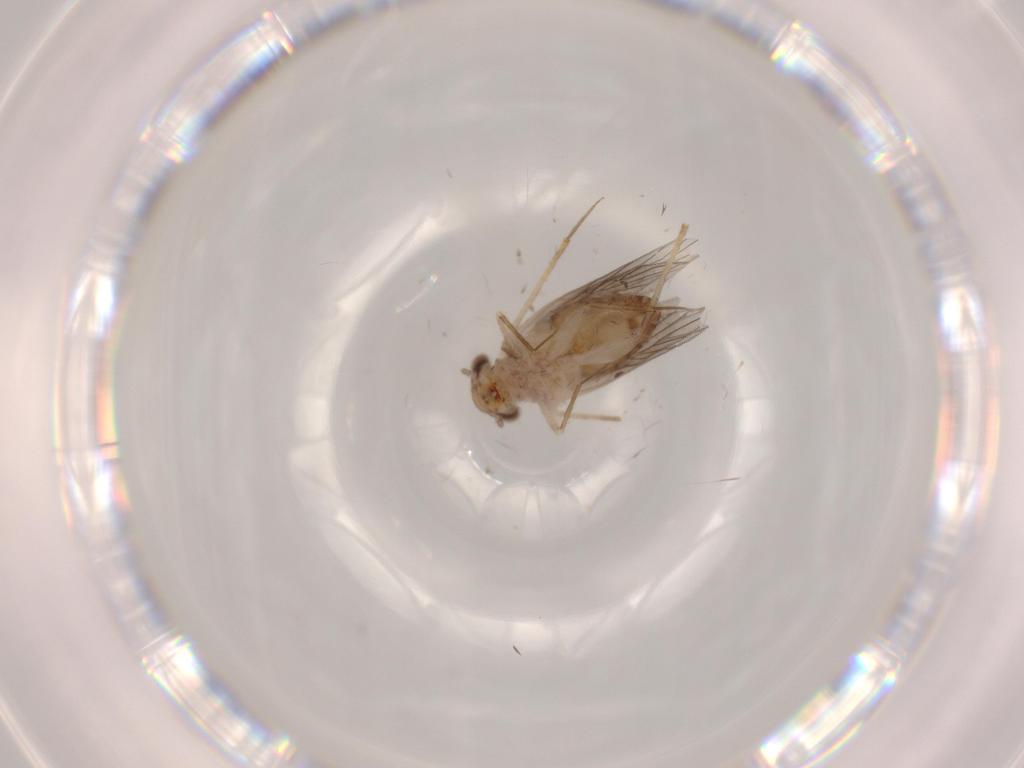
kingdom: Animalia
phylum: Arthropoda
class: Insecta
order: Psocodea
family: Lepidopsocidae
